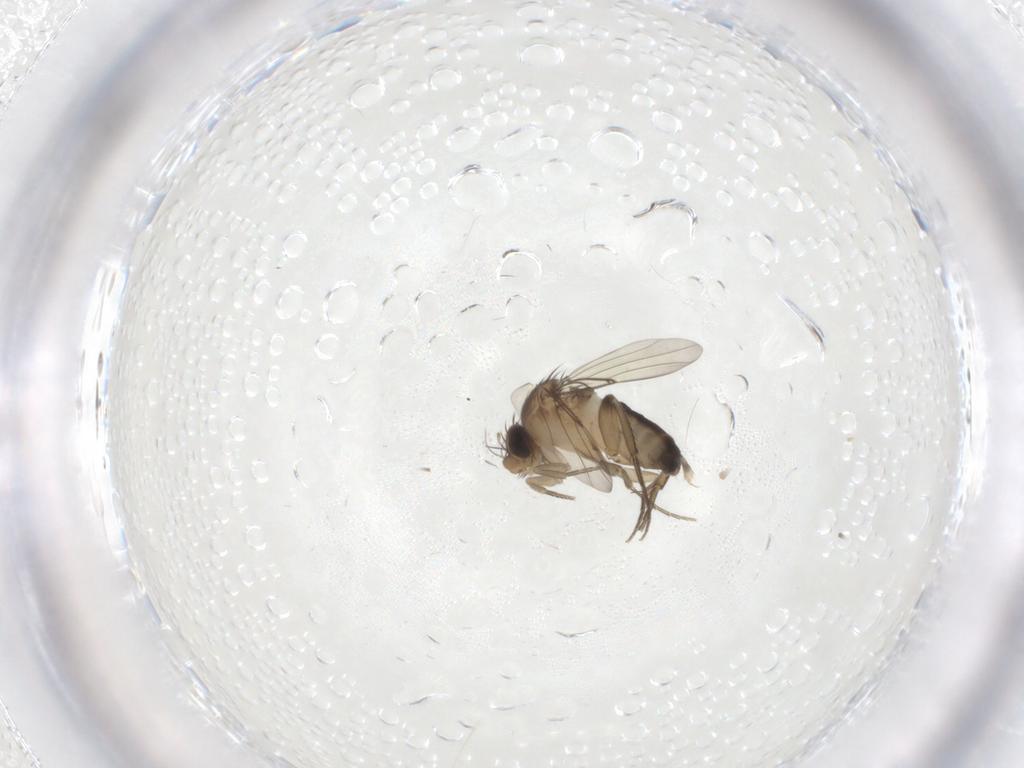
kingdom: Animalia
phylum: Arthropoda
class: Insecta
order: Diptera
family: Phoridae
